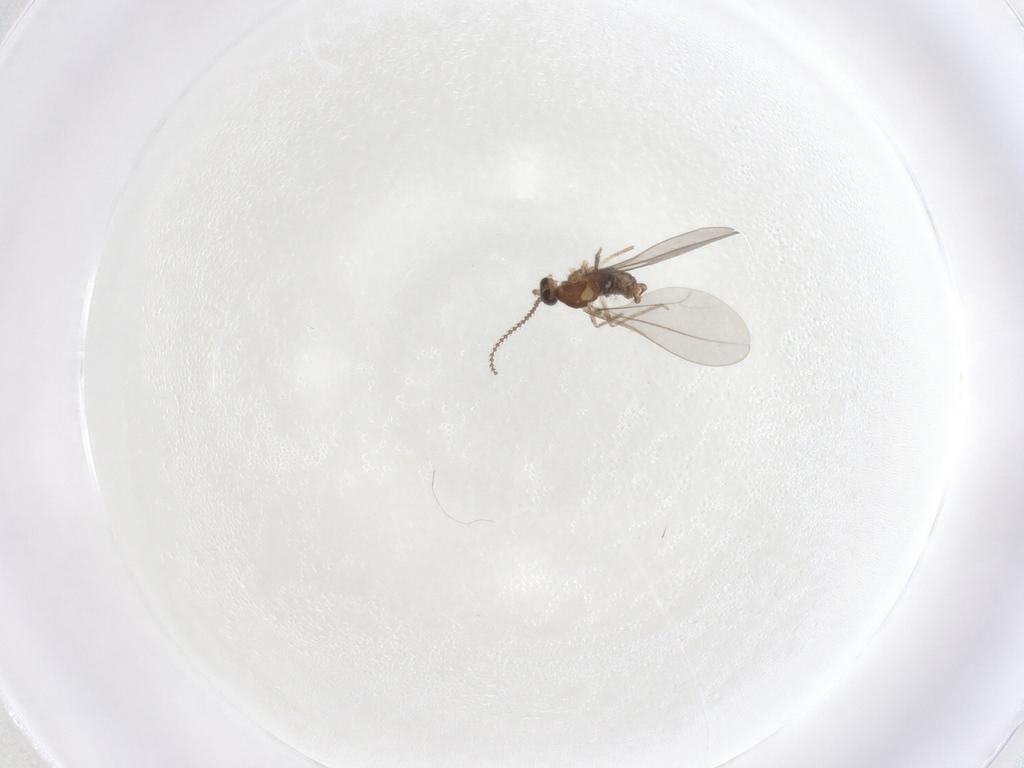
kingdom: Animalia
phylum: Arthropoda
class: Insecta
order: Diptera
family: Cecidomyiidae
